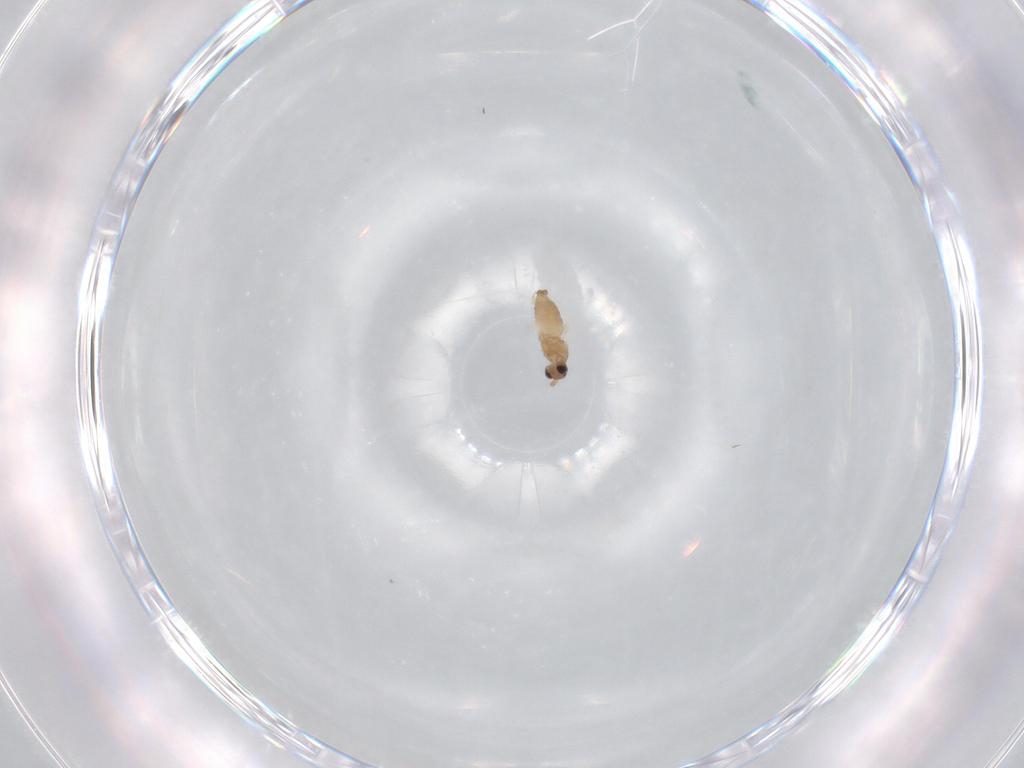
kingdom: Animalia
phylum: Arthropoda
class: Insecta
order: Diptera
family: Cecidomyiidae
